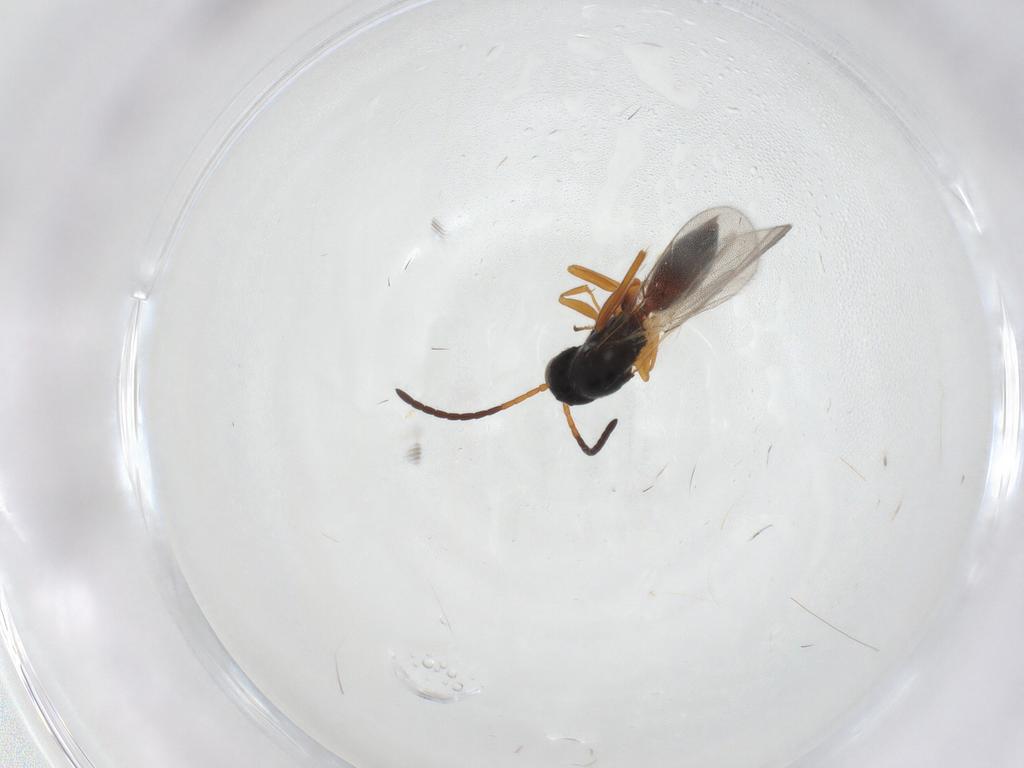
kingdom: Animalia
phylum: Arthropoda
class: Insecta
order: Hymenoptera
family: Figitidae
